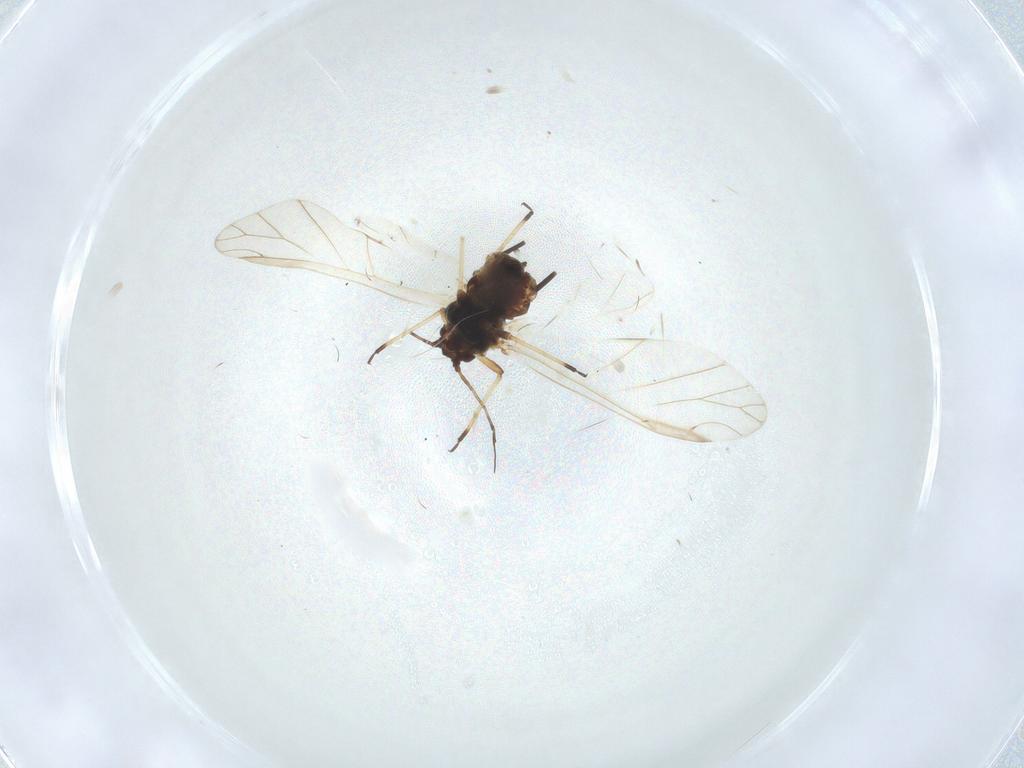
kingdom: Animalia
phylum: Arthropoda
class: Insecta
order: Hemiptera
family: Aphididae
